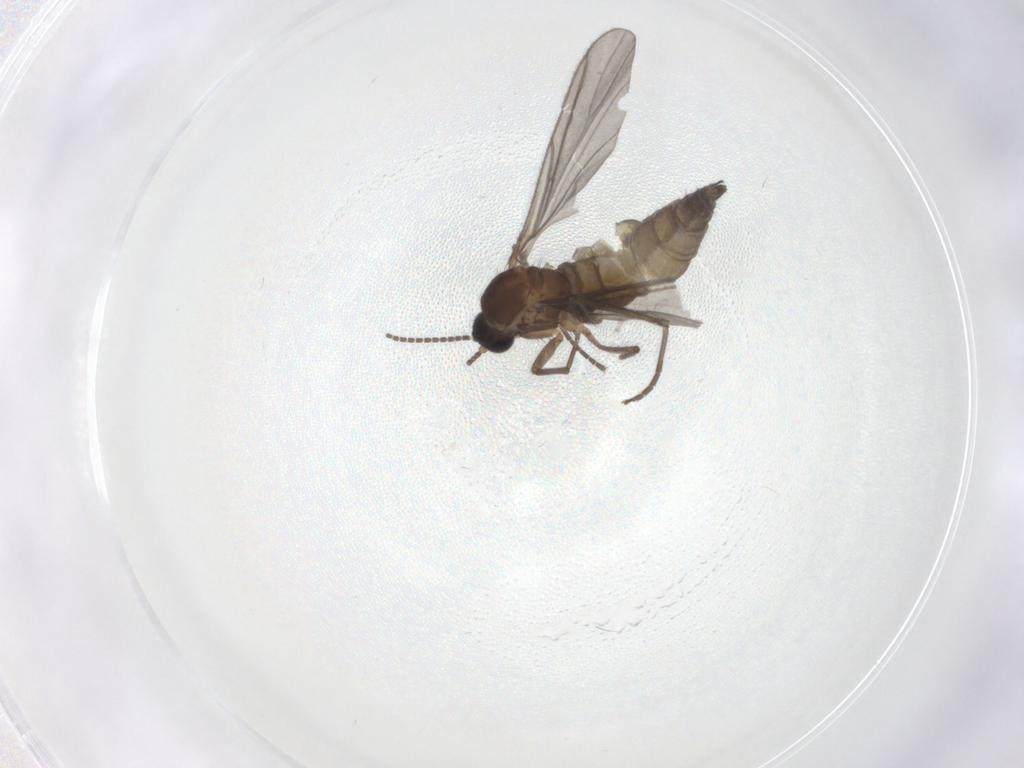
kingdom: Animalia
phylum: Arthropoda
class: Insecta
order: Diptera
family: Sciaridae
